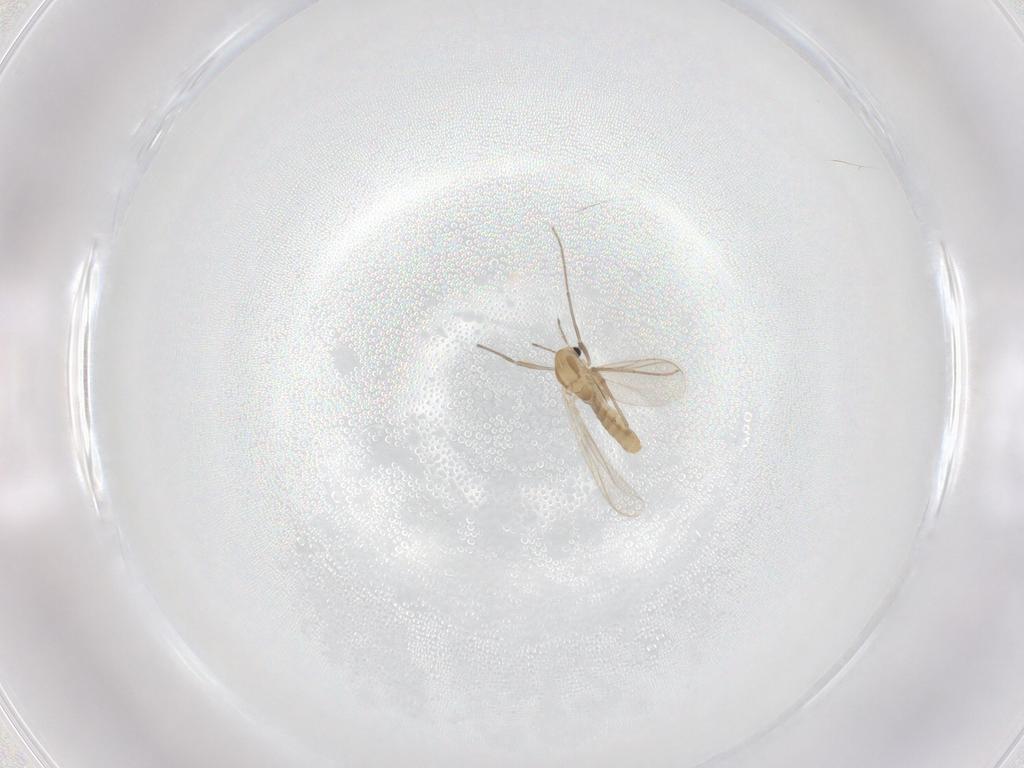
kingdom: Animalia
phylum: Arthropoda
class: Insecta
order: Diptera
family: Chironomidae
